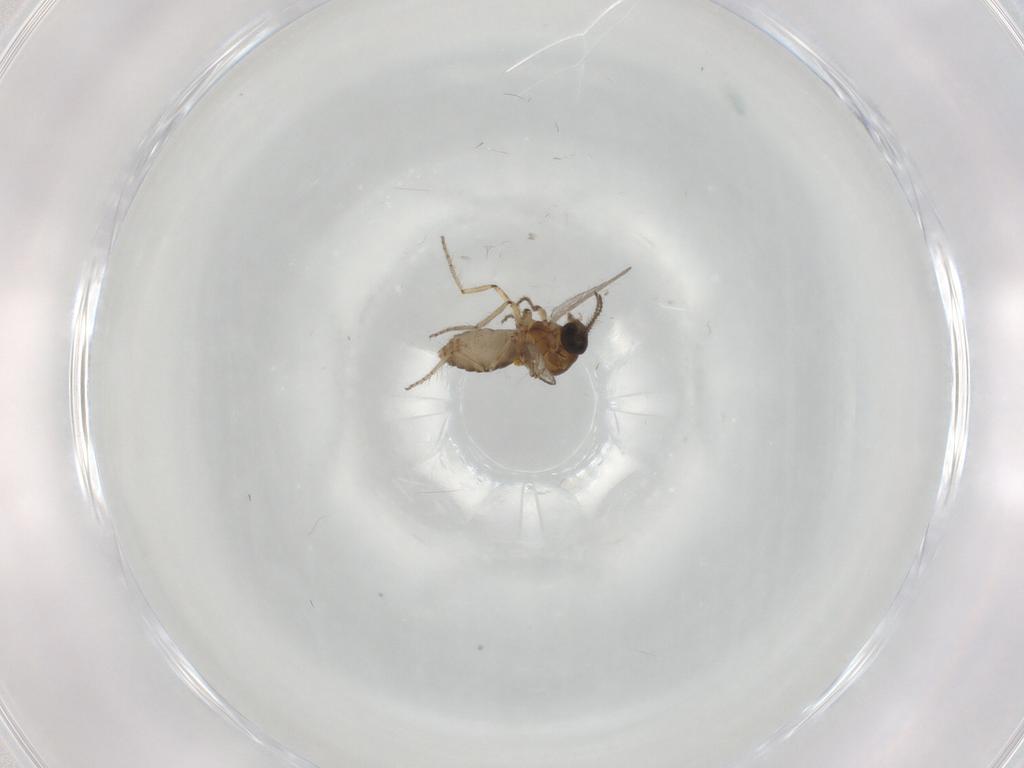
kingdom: Animalia
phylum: Arthropoda
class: Insecta
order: Diptera
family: Ceratopogonidae
